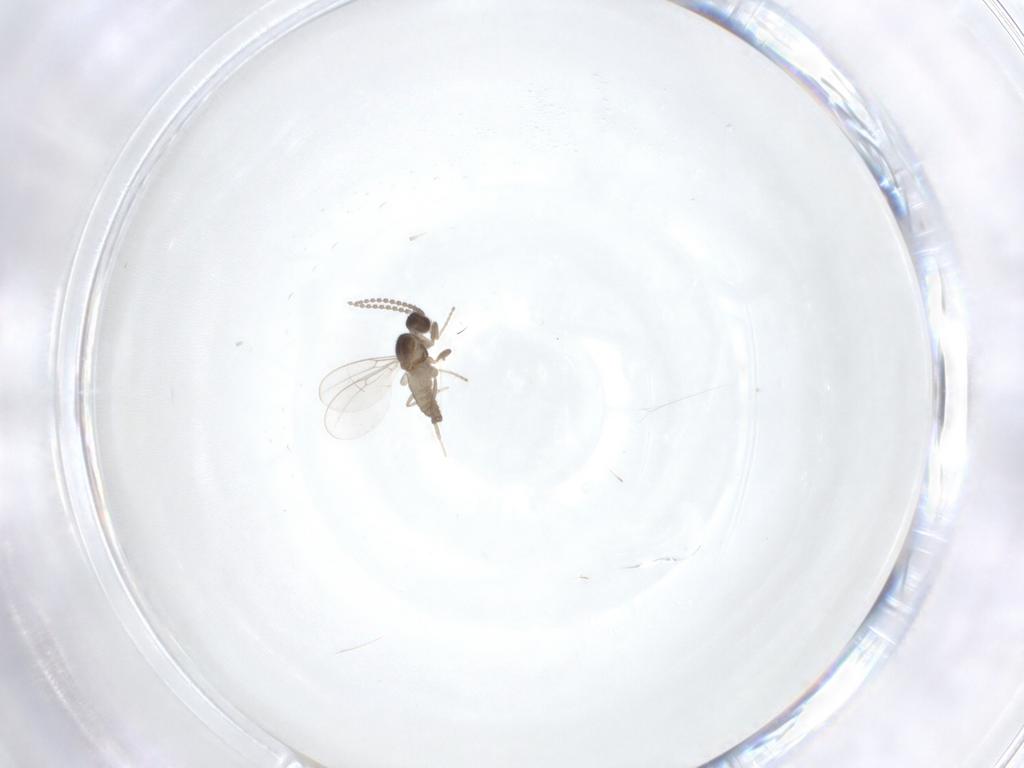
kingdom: Animalia
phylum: Arthropoda
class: Insecta
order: Diptera
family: Cecidomyiidae
